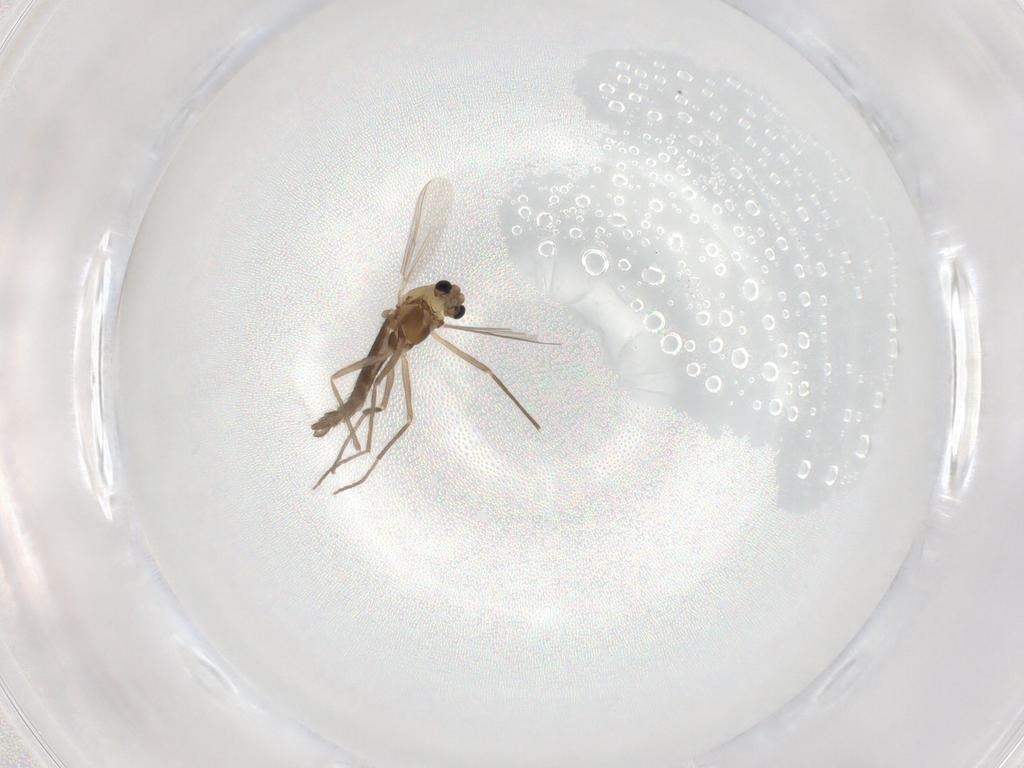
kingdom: Animalia
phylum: Arthropoda
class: Insecta
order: Diptera
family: Chironomidae
